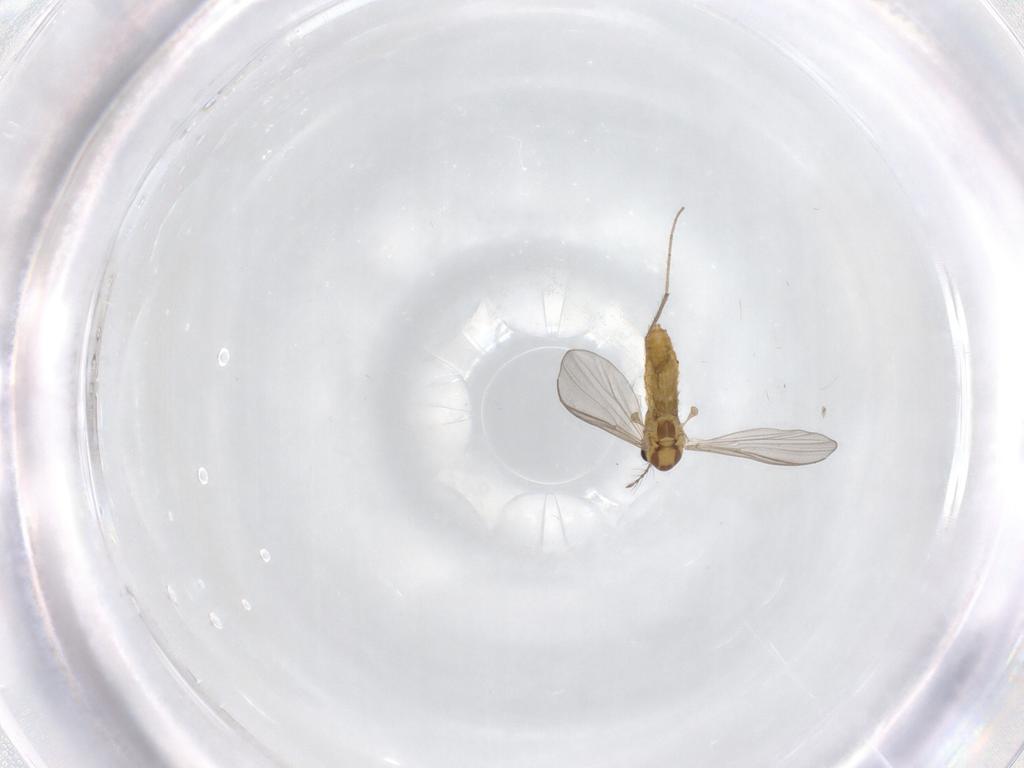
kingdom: Animalia
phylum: Arthropoda
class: Insecta
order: Diptera
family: Chironomidae
